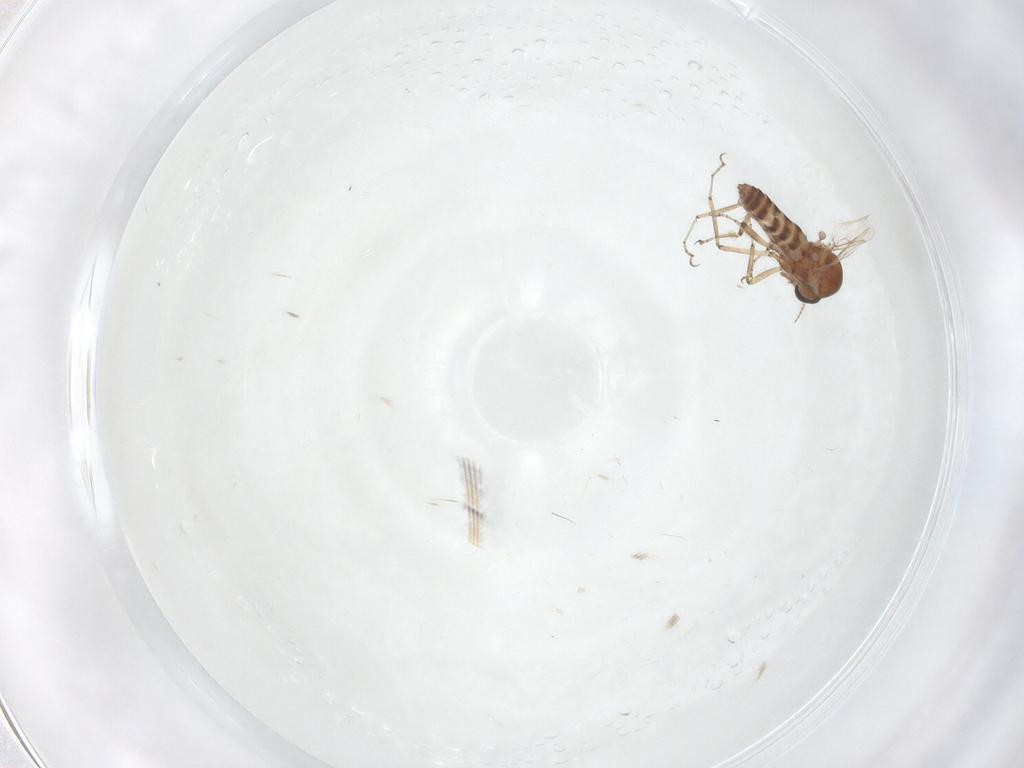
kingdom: Animalia
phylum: Arthropoda
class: Insecta
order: Diptera
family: Ceratopogonidae
